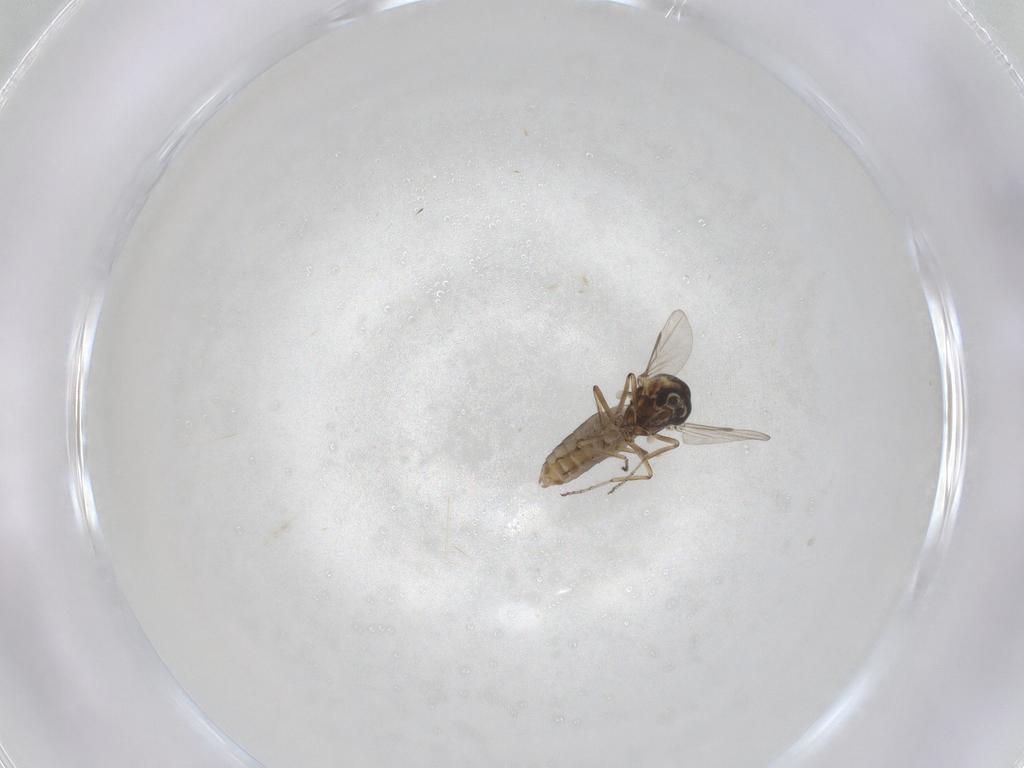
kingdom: Animalia
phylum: Arthropoda
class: Insecta
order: Diptera
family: Ceratopogonidae
